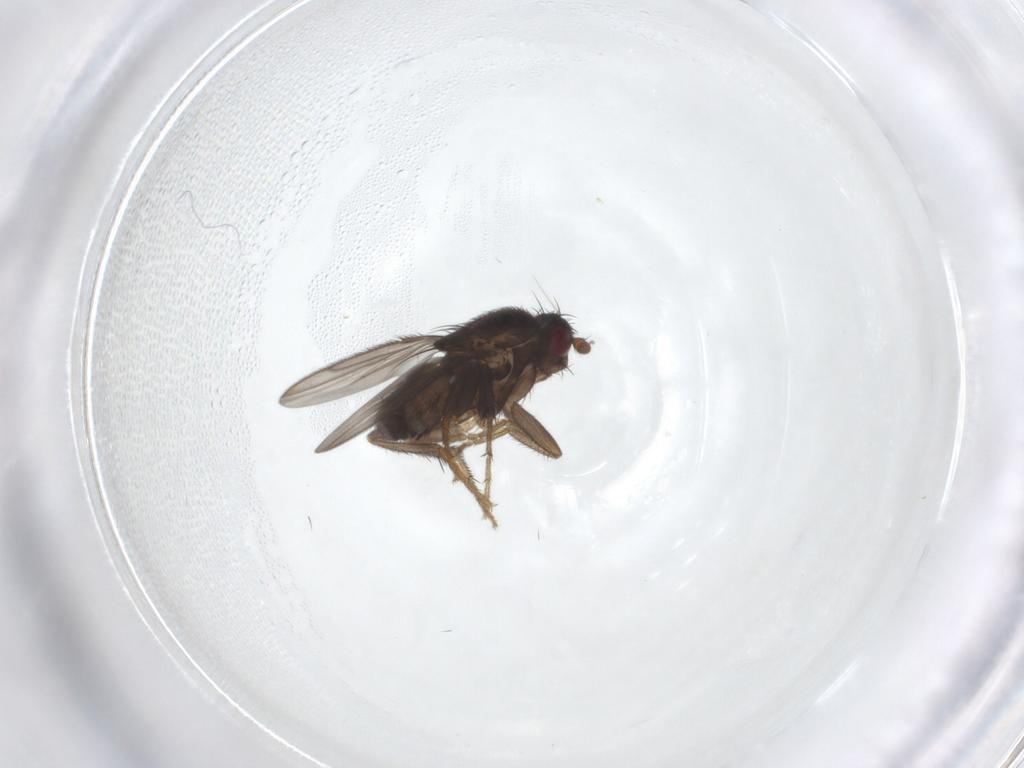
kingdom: Animalia
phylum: Arthropoda
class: Insecta
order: Diptera
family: Sphaeroceridae
